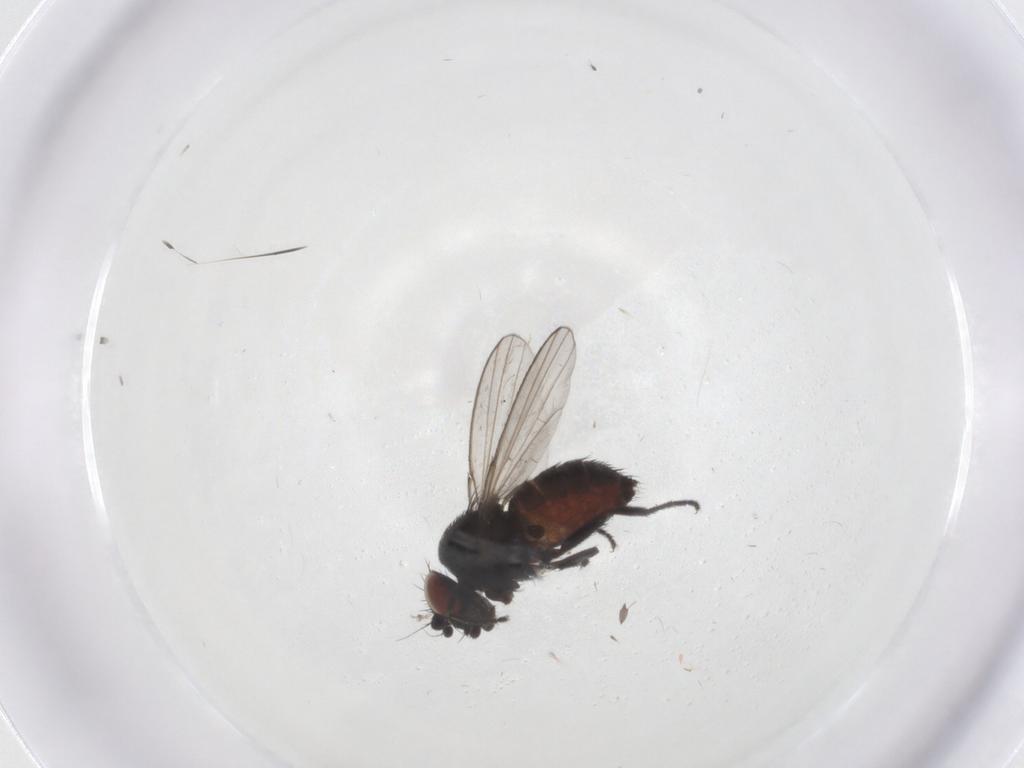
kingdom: Animalia
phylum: Arthropoda
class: Insecta
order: Diptera
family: Milichiidae
